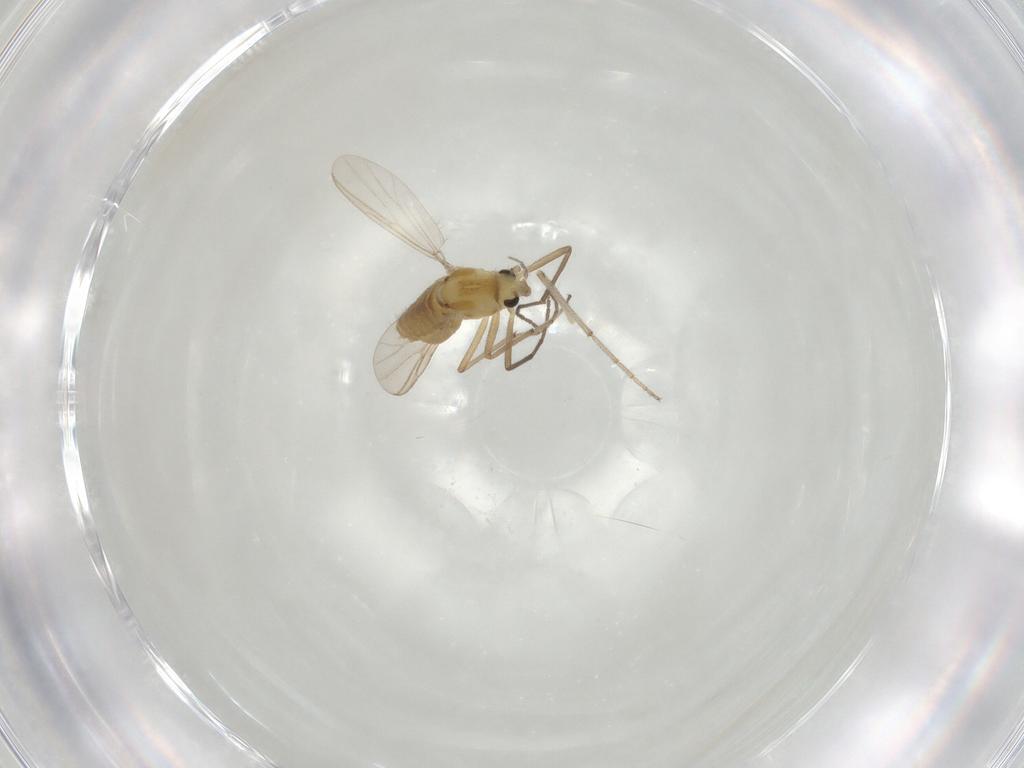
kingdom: Animalia
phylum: Arthropoda
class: Insecta
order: Diptera
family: Chironomidae
